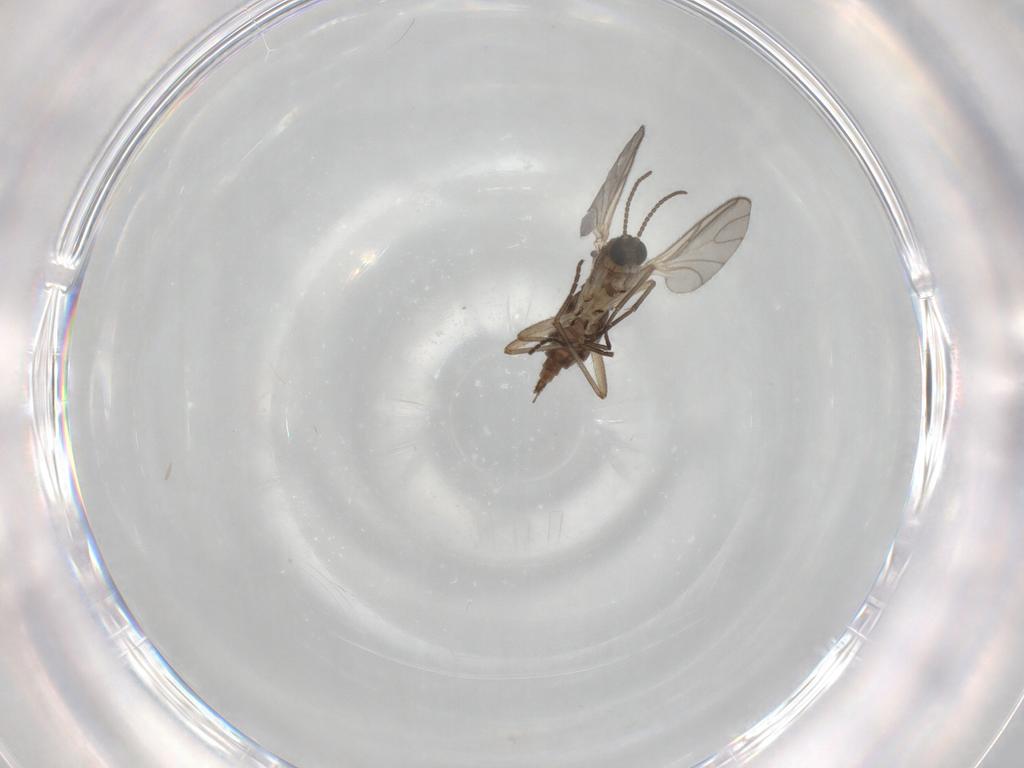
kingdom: Animalia
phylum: Arthropoda
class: Insecta
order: Diptera
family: Sciaridae
